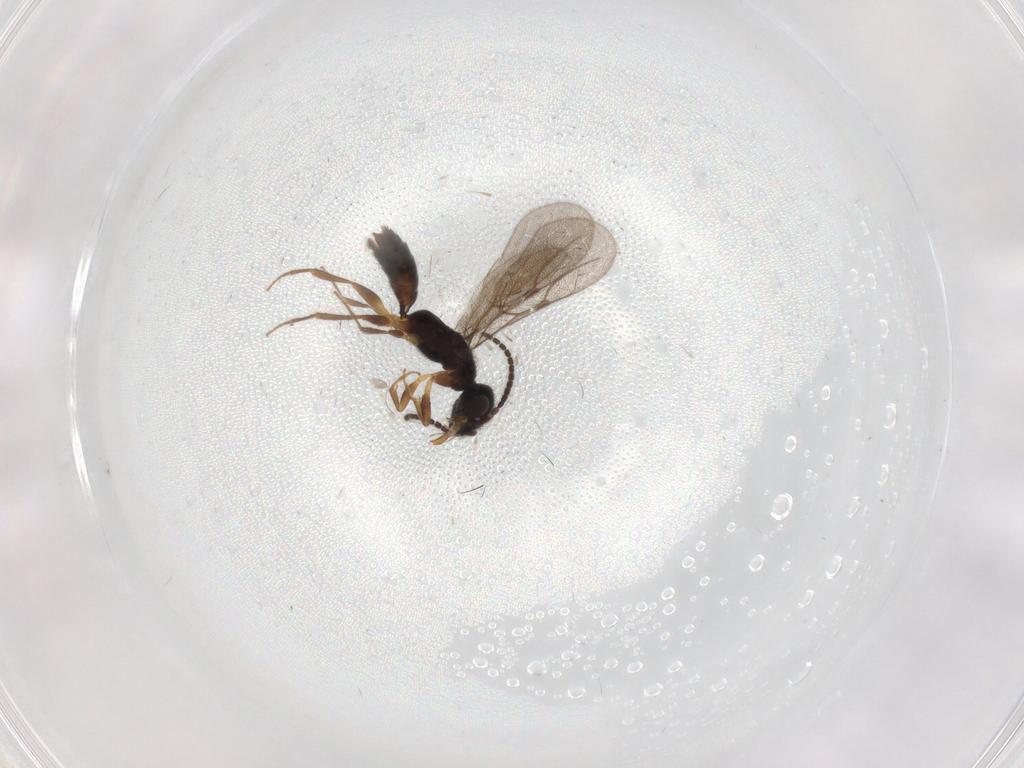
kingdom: Animalia
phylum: Arthropoda
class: Insecta
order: Hymenoptera
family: Bethylidae
